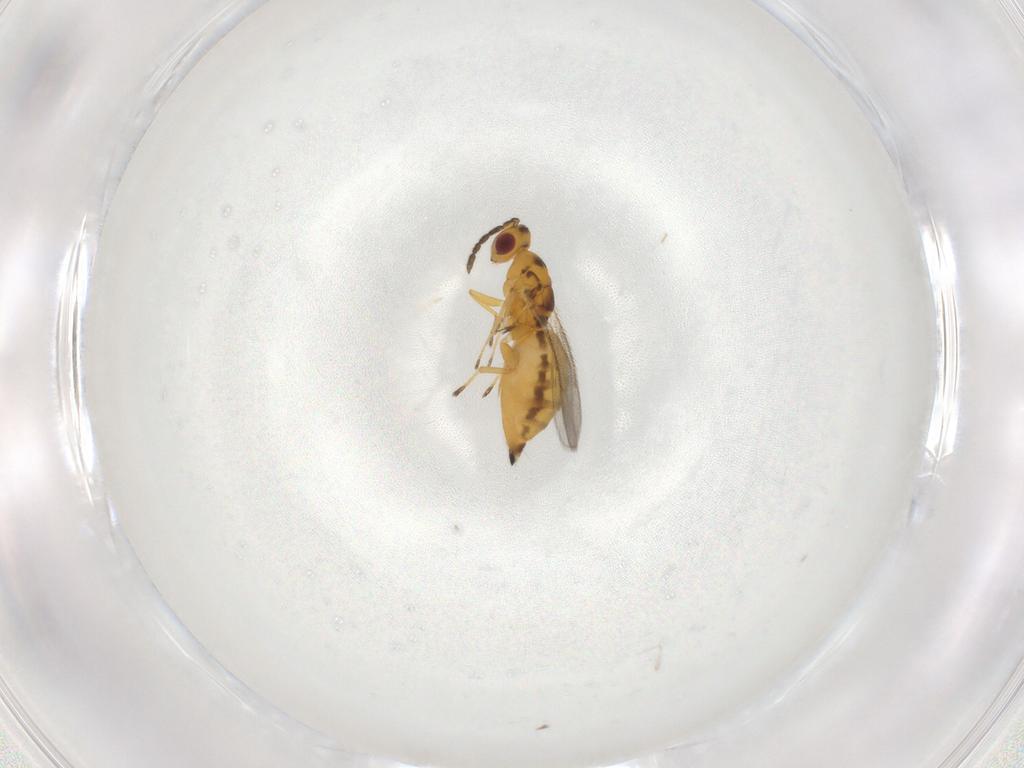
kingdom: Animalia
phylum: Arthropoda
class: Insecta
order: Hymenoptera
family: Eulophidae
